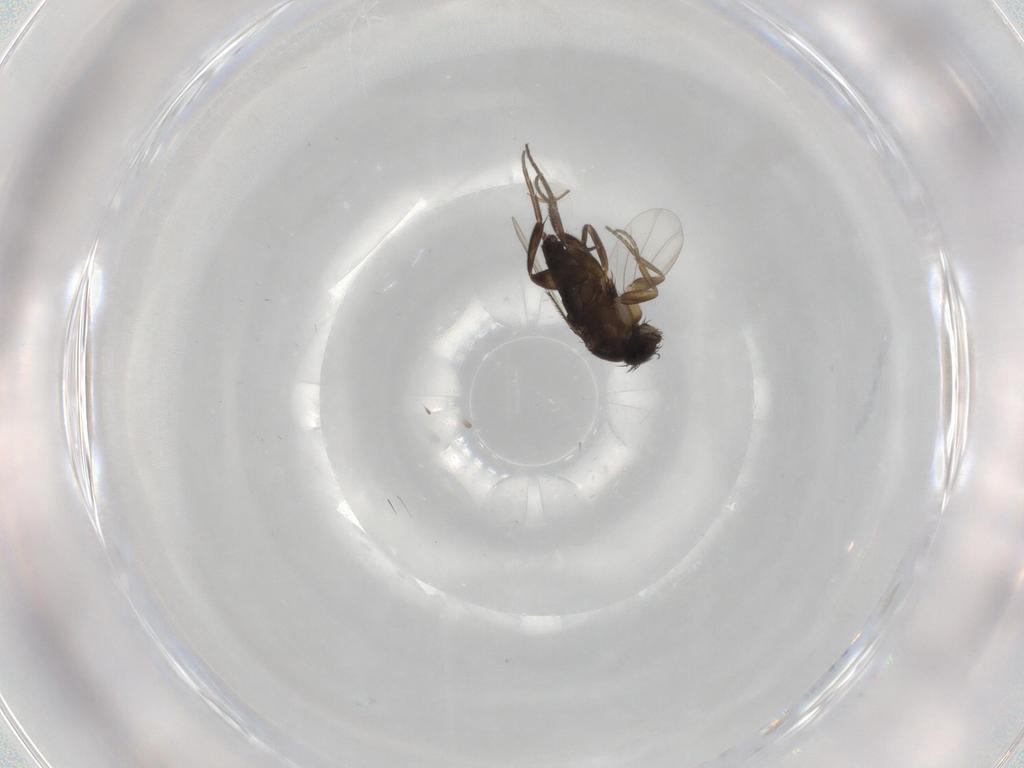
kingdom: Animalia
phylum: Arthropoda
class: Insecta
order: Diptera
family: Phoridae
